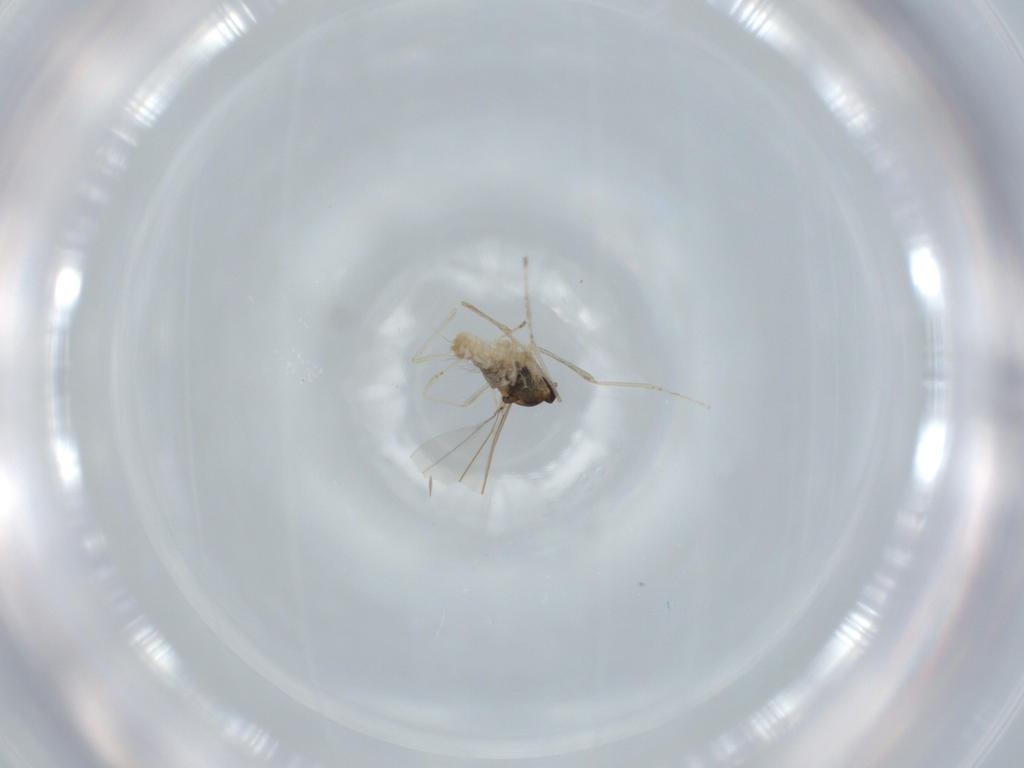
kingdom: Animalia
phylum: Arthropoda
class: Insecta
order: Diptera
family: Cecidomyiidae
